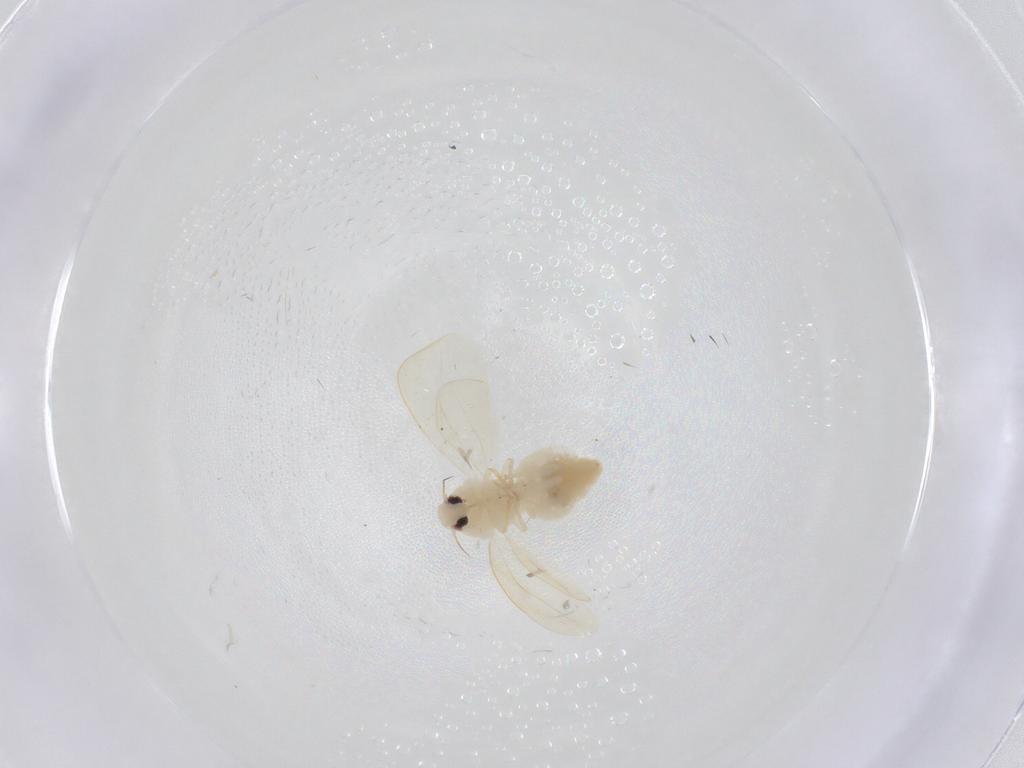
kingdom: Animalia
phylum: Arthropoda
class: Insecta
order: Hemiptera
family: Aleyrodidae
